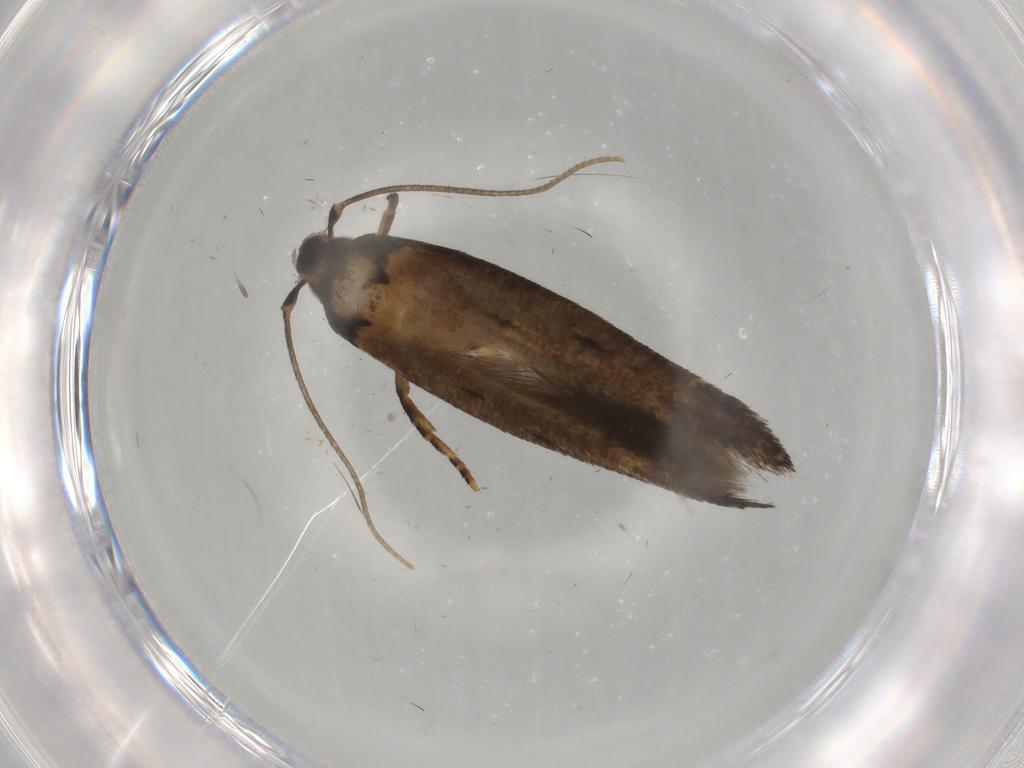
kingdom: Animalia
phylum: Arthropoda
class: Insecta
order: Lepidoptera
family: Cosmopterigidae
